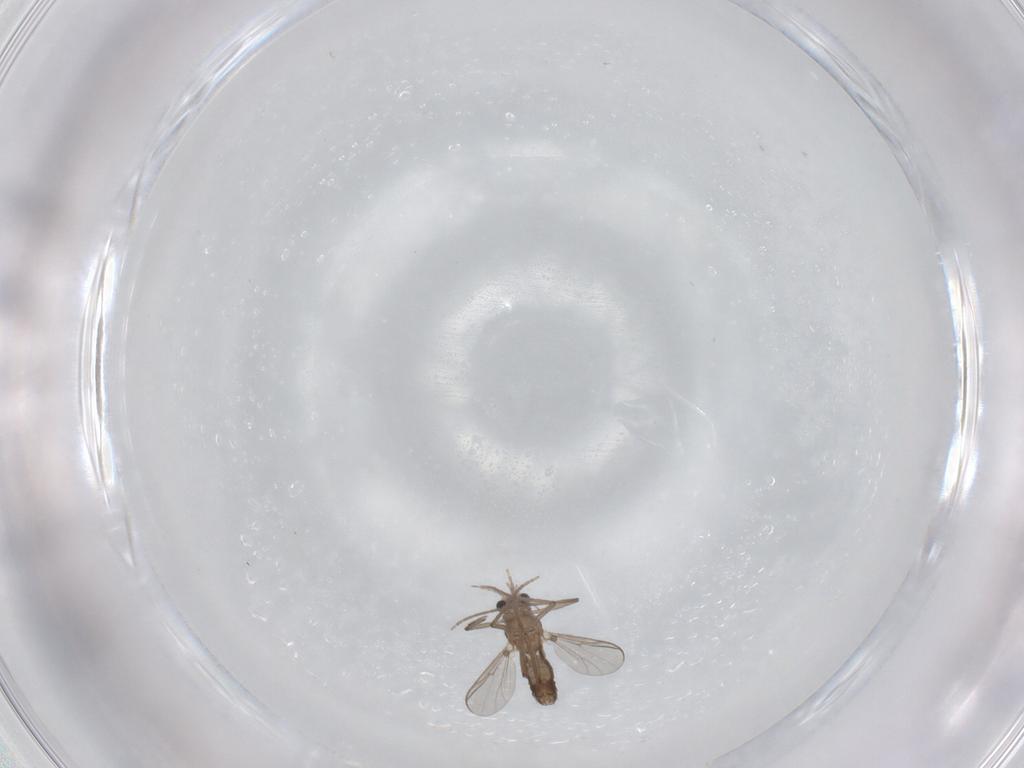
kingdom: Animalia
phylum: Arthropoda
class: Insecta
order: Diptera
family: Chironomidae
